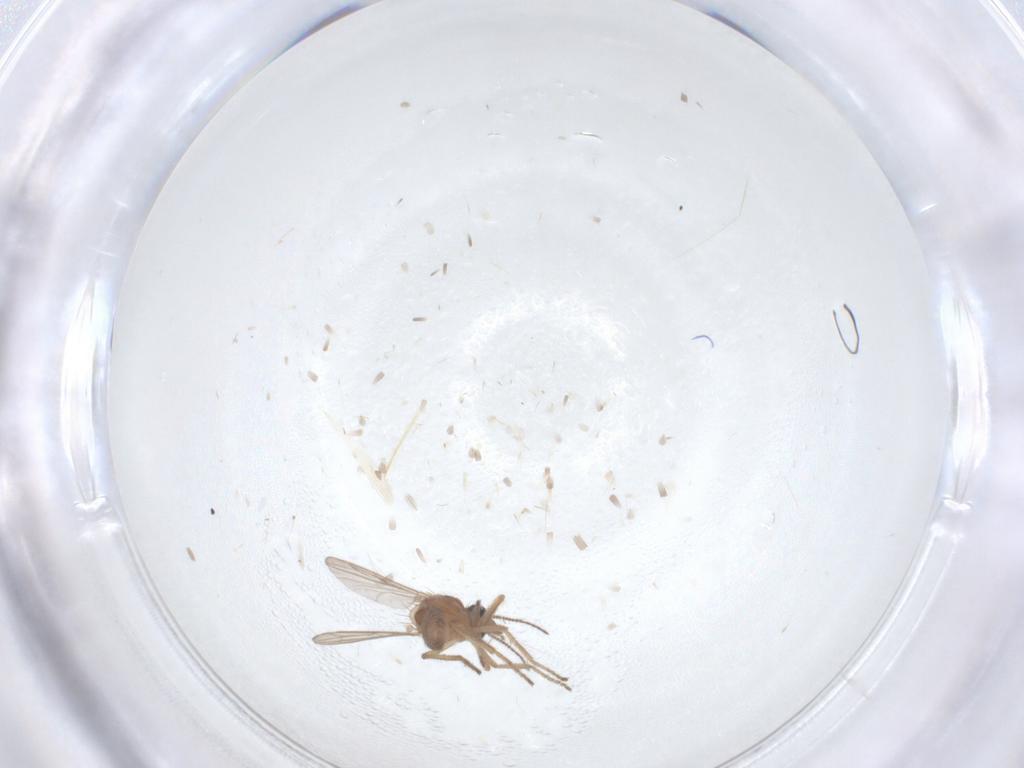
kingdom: Animalia
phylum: Arthropoda
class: Insecta
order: Diptera
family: Ceratopogonidae
